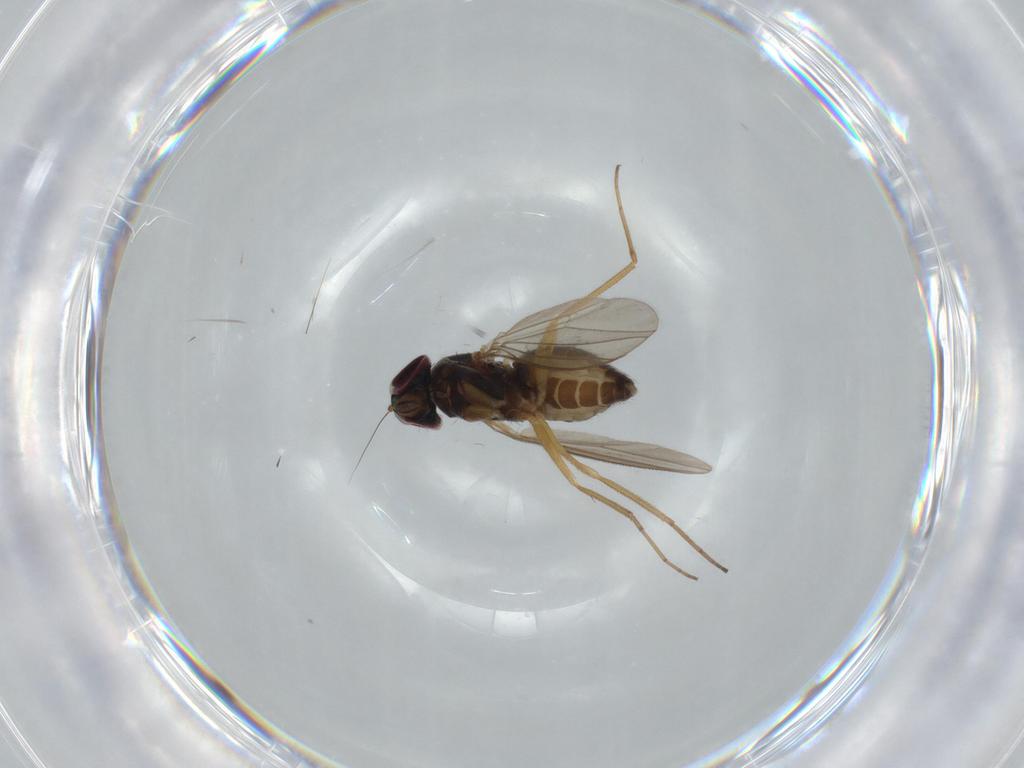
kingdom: Animalia
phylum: Arthropoda
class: Insecta
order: Diptera
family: Dolichopodidae
